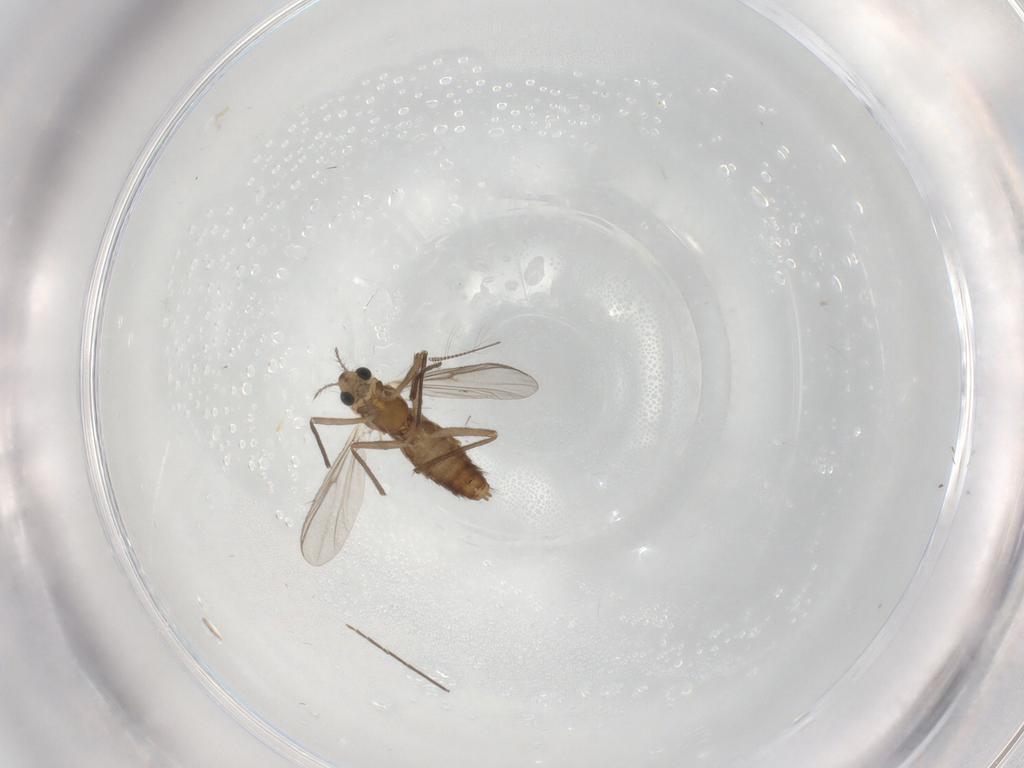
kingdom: Animalia
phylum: Arthropoda
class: Insecta
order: Diptera
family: Chironomidae
